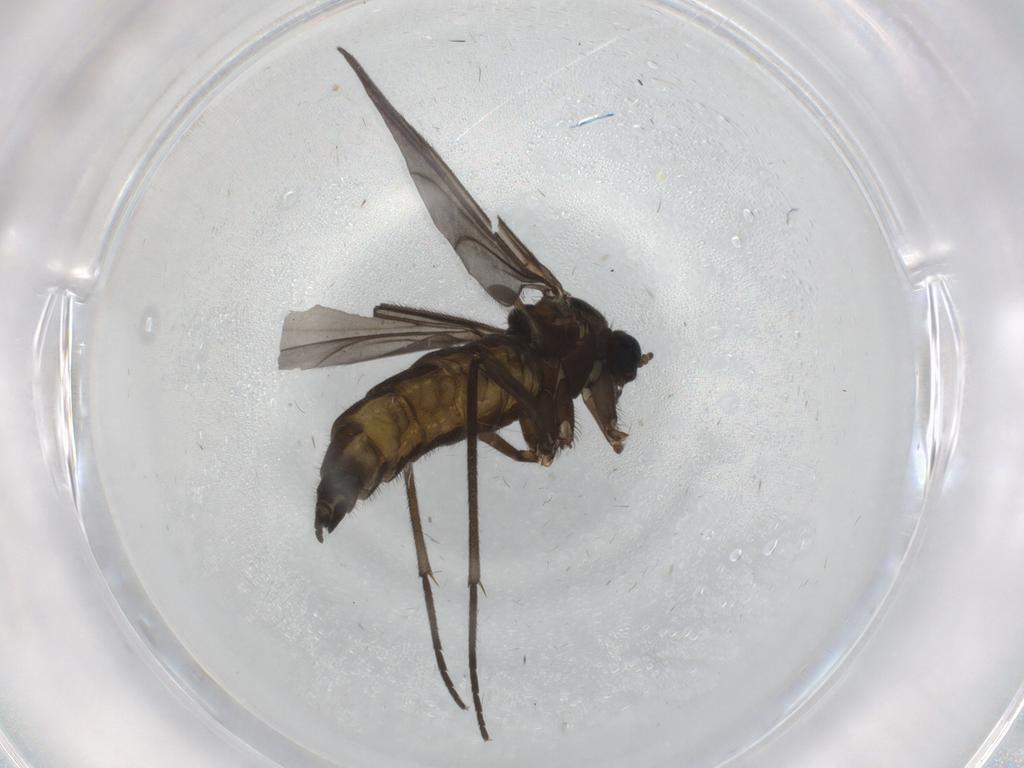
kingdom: Animalia
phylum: Arthropoda
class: Insecta
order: Diptera
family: Sciaridae
